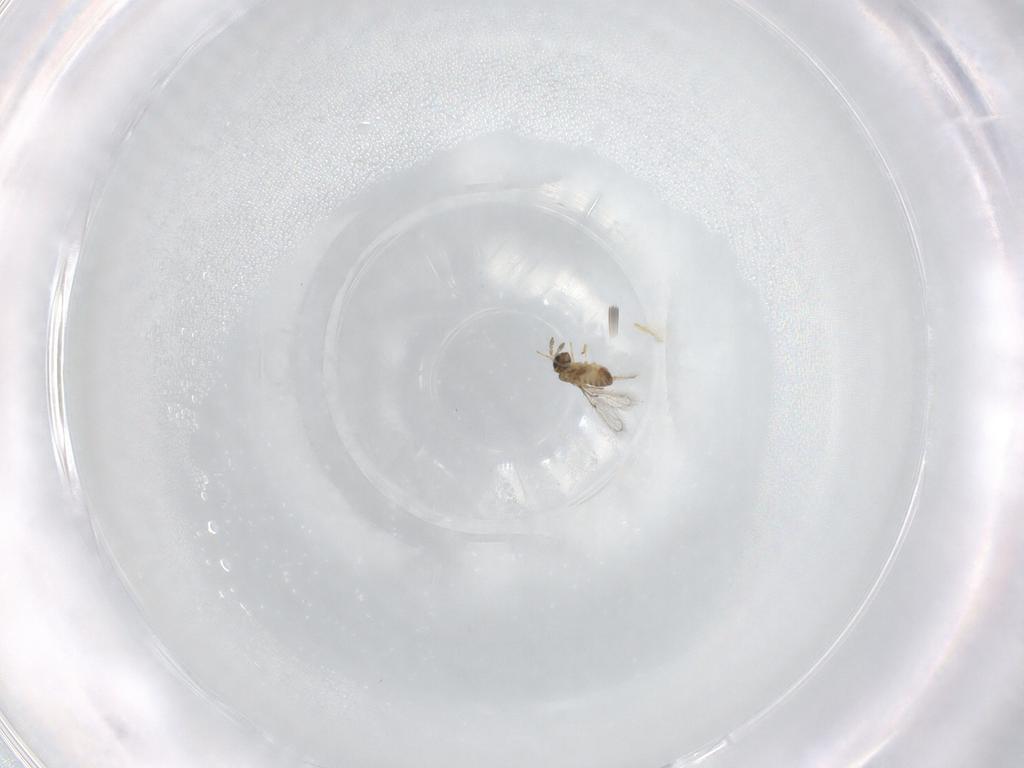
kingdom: Animalia
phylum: Arthropoda
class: Insecta
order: Hymenoptera
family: Trichogrammatidae
